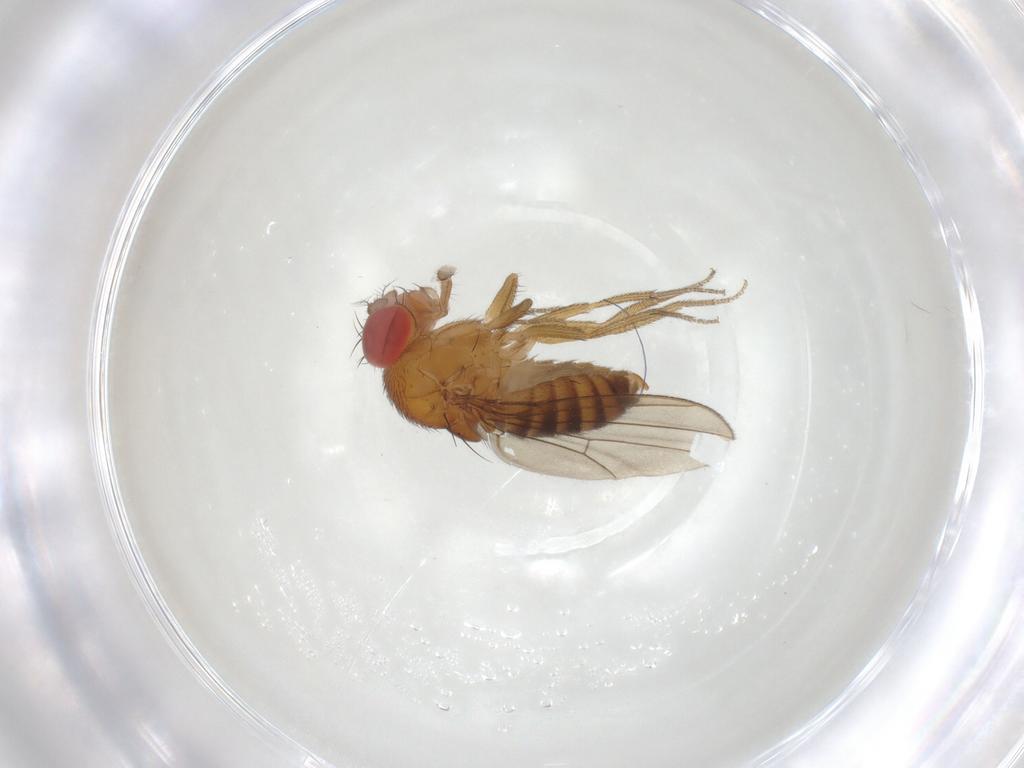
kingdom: Animalia
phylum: Arthropoda
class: Insecta
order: Diptera
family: Drosophilidae
